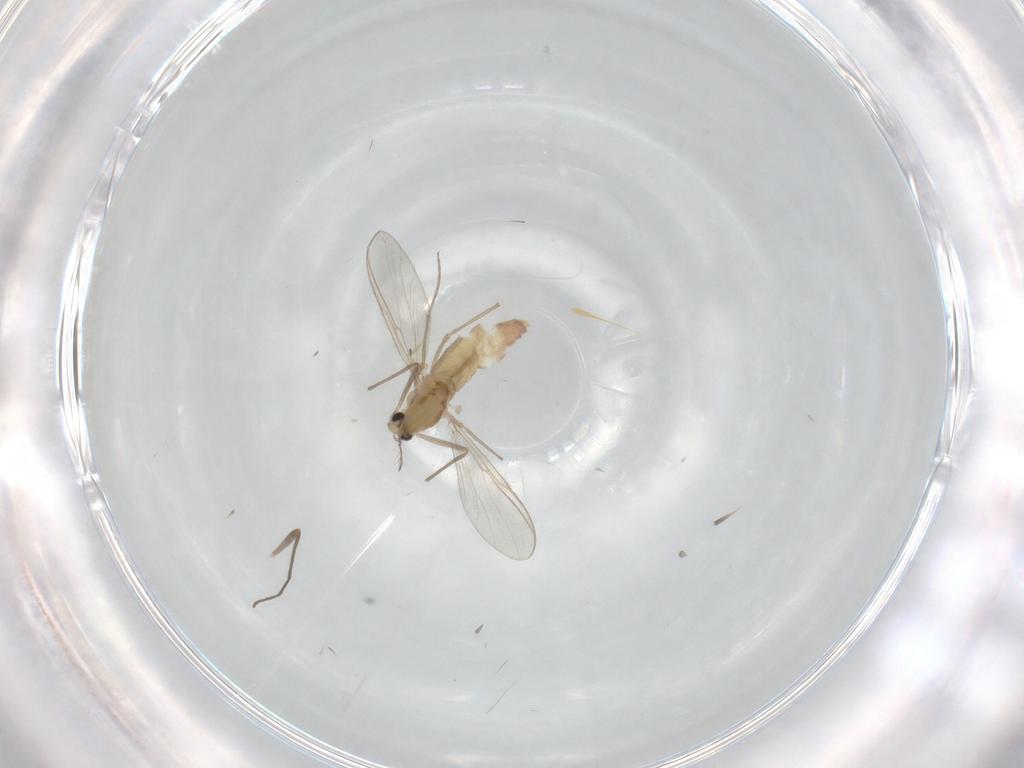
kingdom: Animalia
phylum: Arthropoda
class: Insecta
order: Diptera
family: Chironomidae
